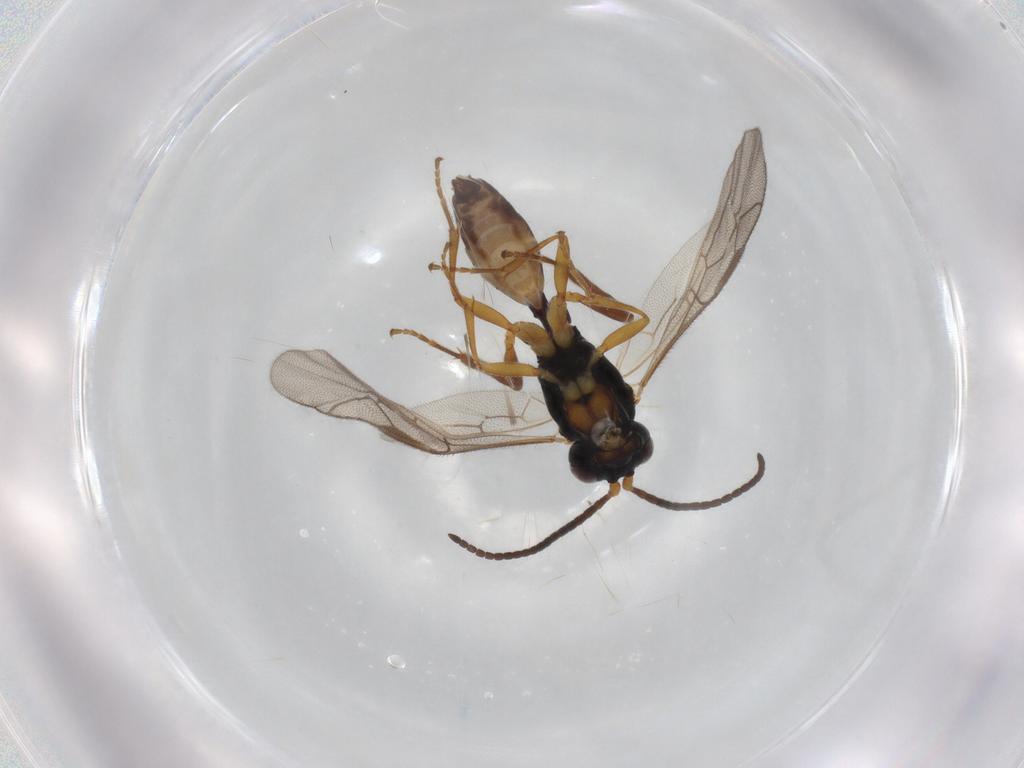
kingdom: Animalia
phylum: Arthropoda
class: Insecta
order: Hymenoptera
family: Ichneumonidae
